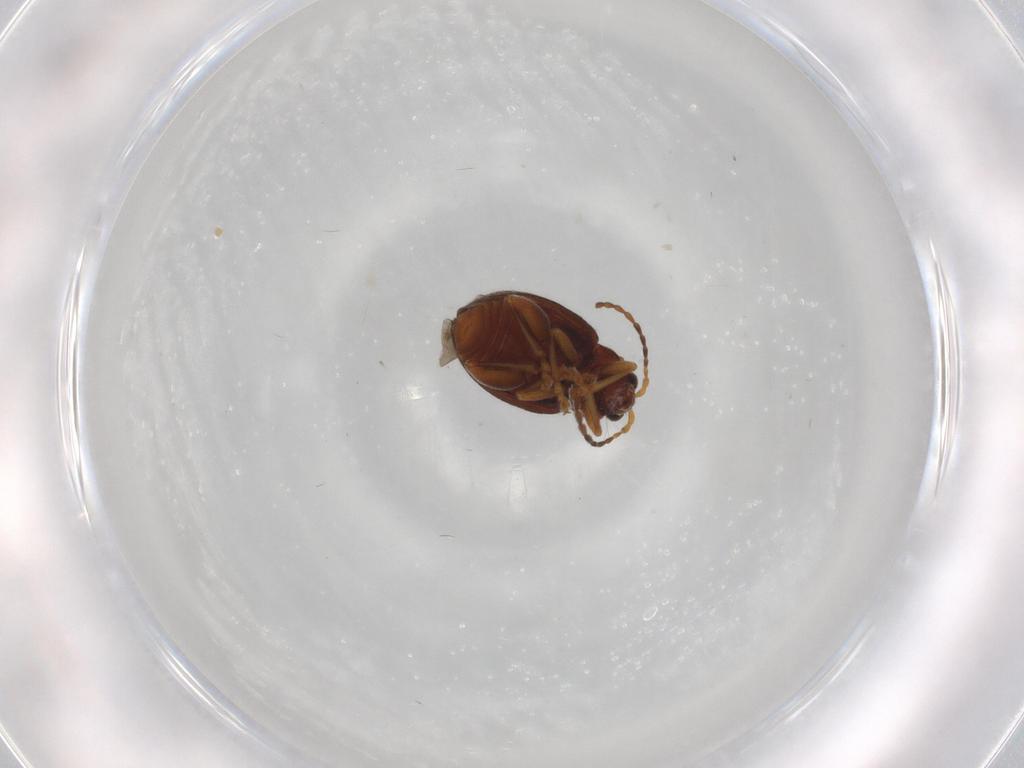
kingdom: Animalia
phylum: Arthropoda
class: Insecta
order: Coleoptera
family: Chrysomelidae
